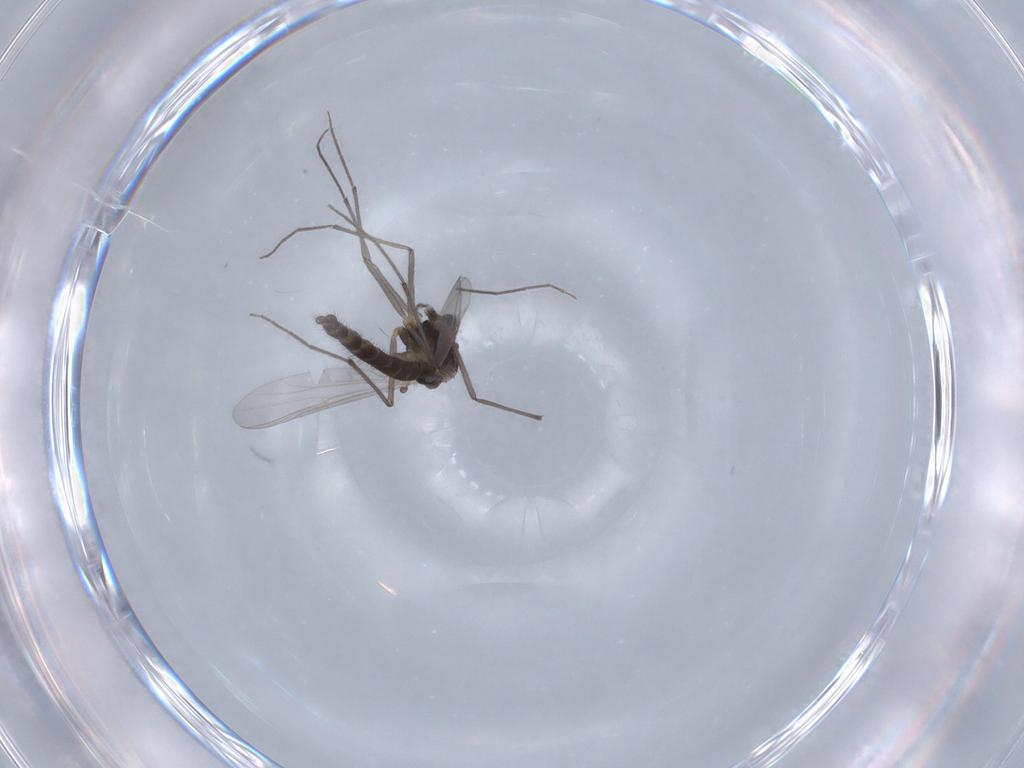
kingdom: Animalia
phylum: Arthropoda
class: Insecta
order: Diptera
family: Chironomidae
